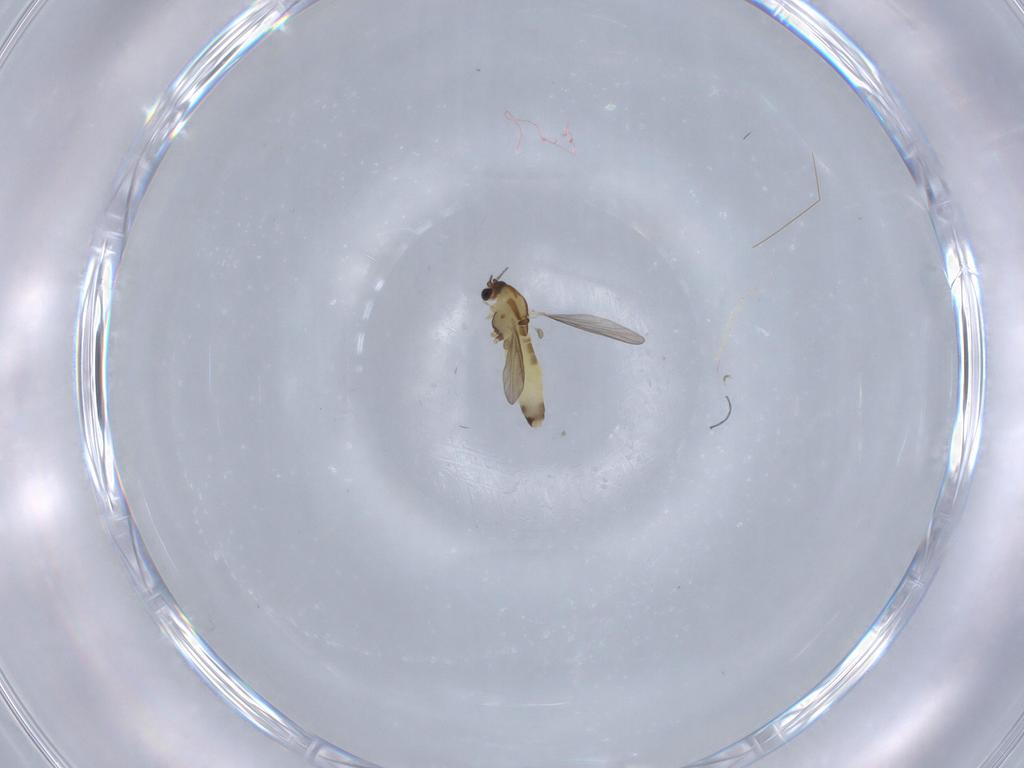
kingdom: Animalia
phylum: Arthropoda
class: Insecta
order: Diptera
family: Chironomidae
